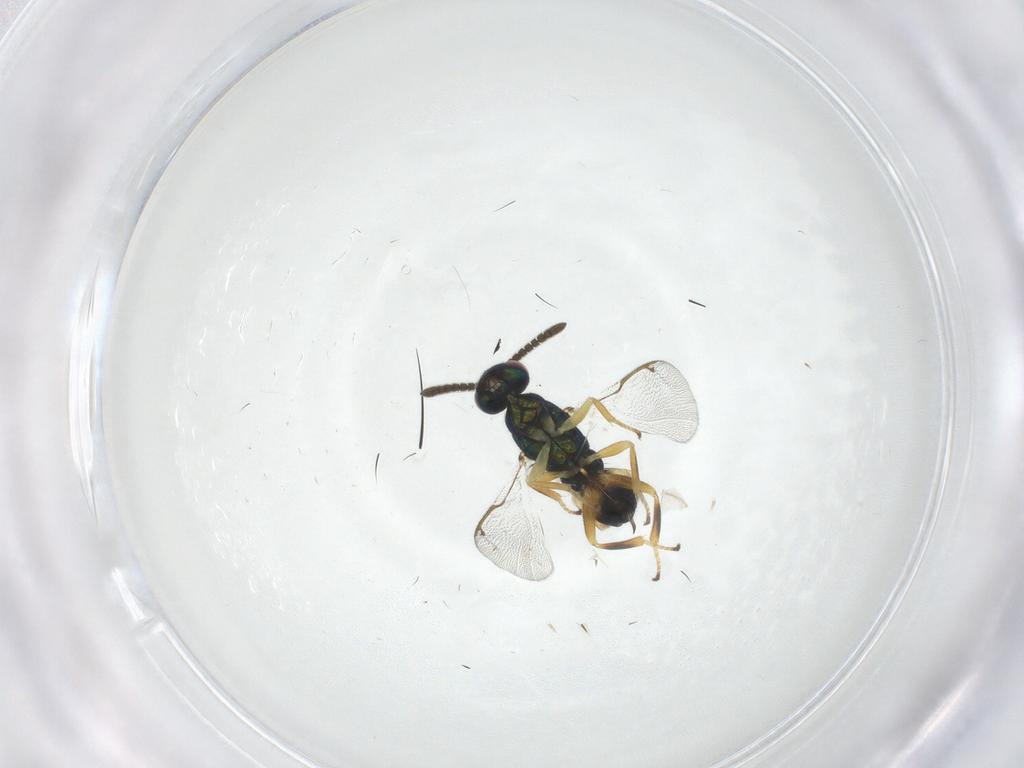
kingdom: Animalia
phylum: Arthropoda
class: Insecta
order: Hymenoptera
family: Torymidae
